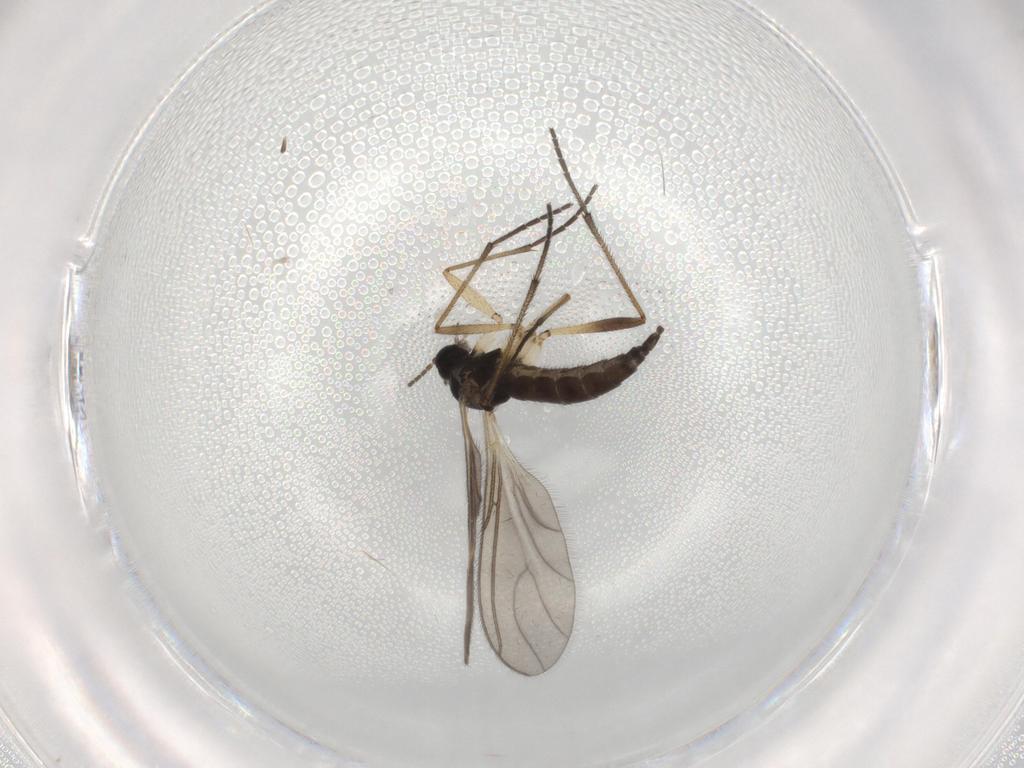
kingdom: Animalia
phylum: Arthropoda
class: Insecta
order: Diptera
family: Sciaridae
